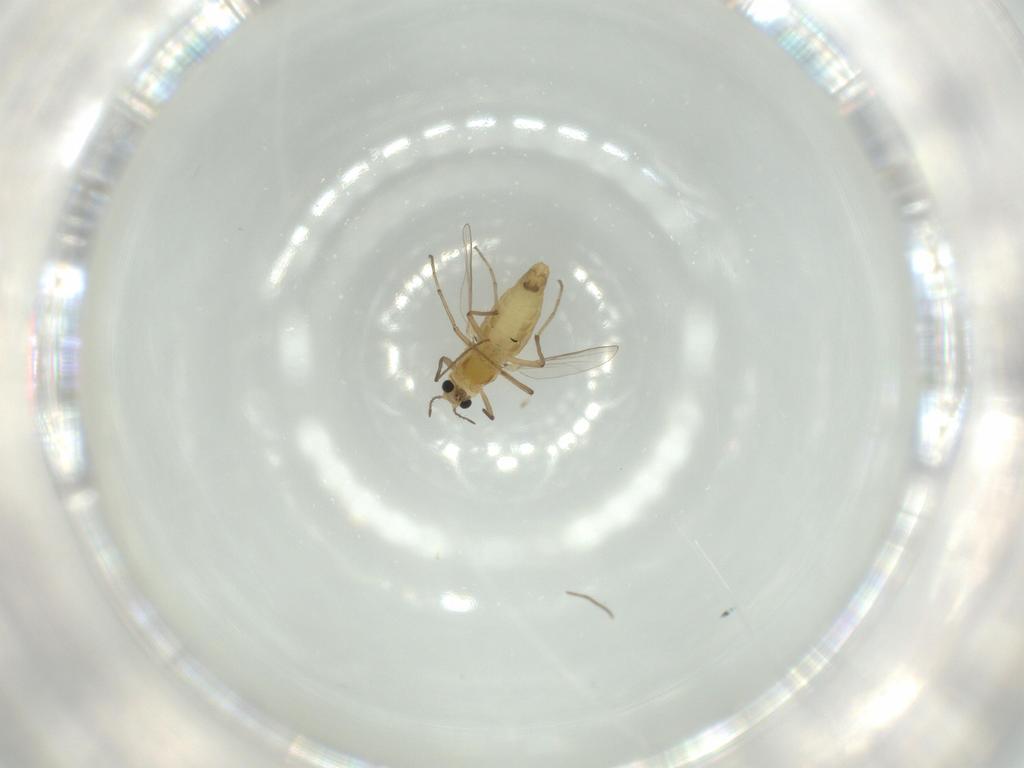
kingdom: Animalia
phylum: Arthropoda
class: Insecta
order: Diptera
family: Chironomidae
